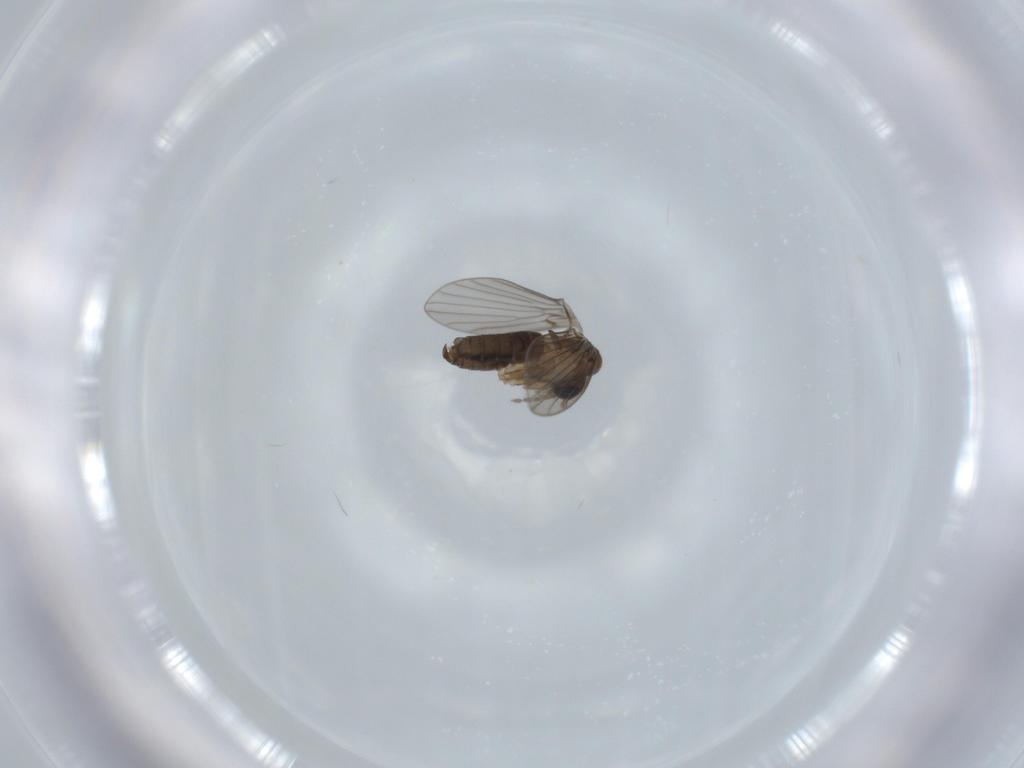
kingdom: Animalia
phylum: Arthropoda
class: Insecta
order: Diptera
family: Psychodidae
